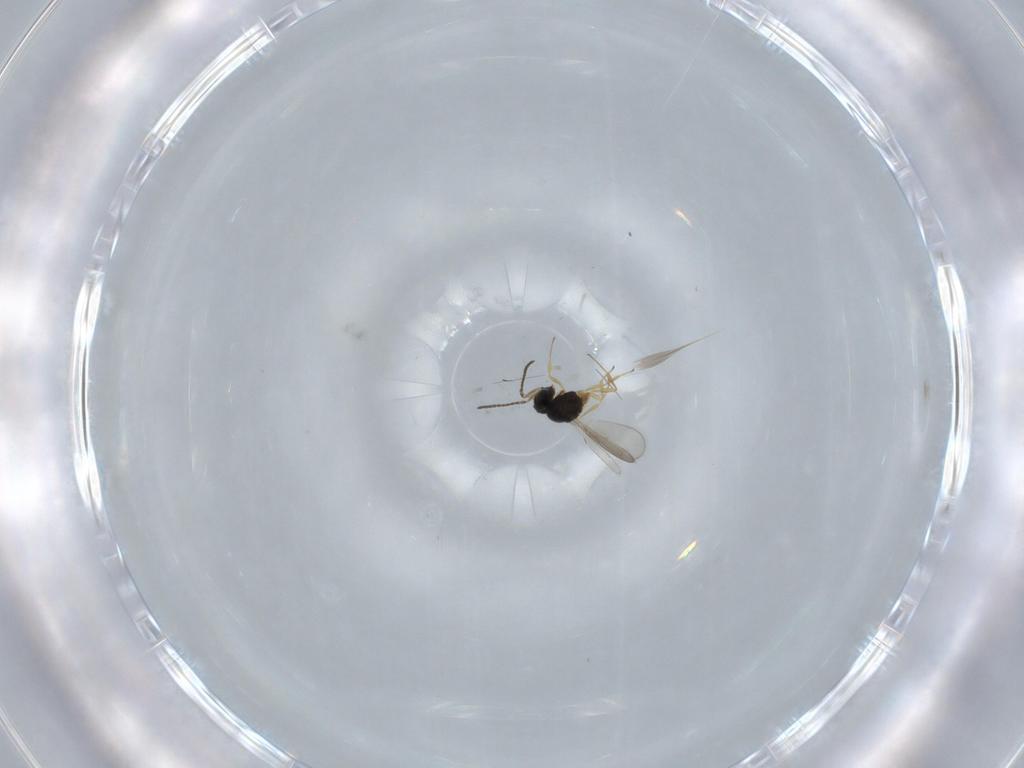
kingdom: Animalia
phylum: Arthropoda
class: Insecta
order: Hymenoptera
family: Scelionidae
